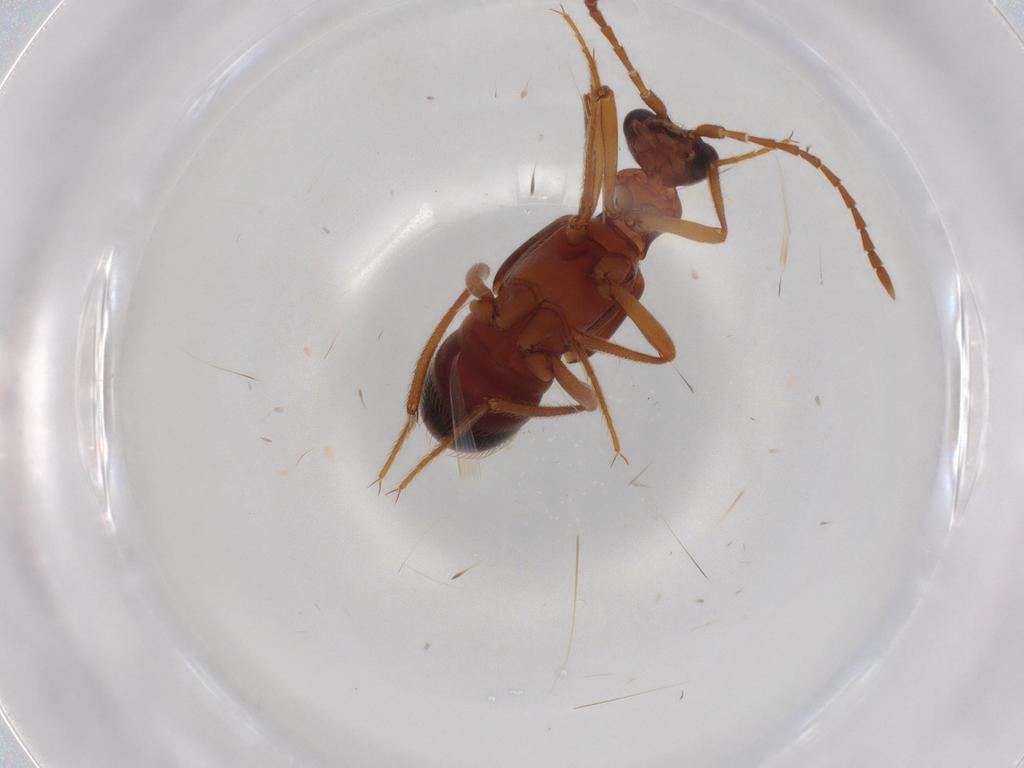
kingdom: Animalia
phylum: Arthropoda
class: Insecta
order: Coleoptera
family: Staphylinidae
